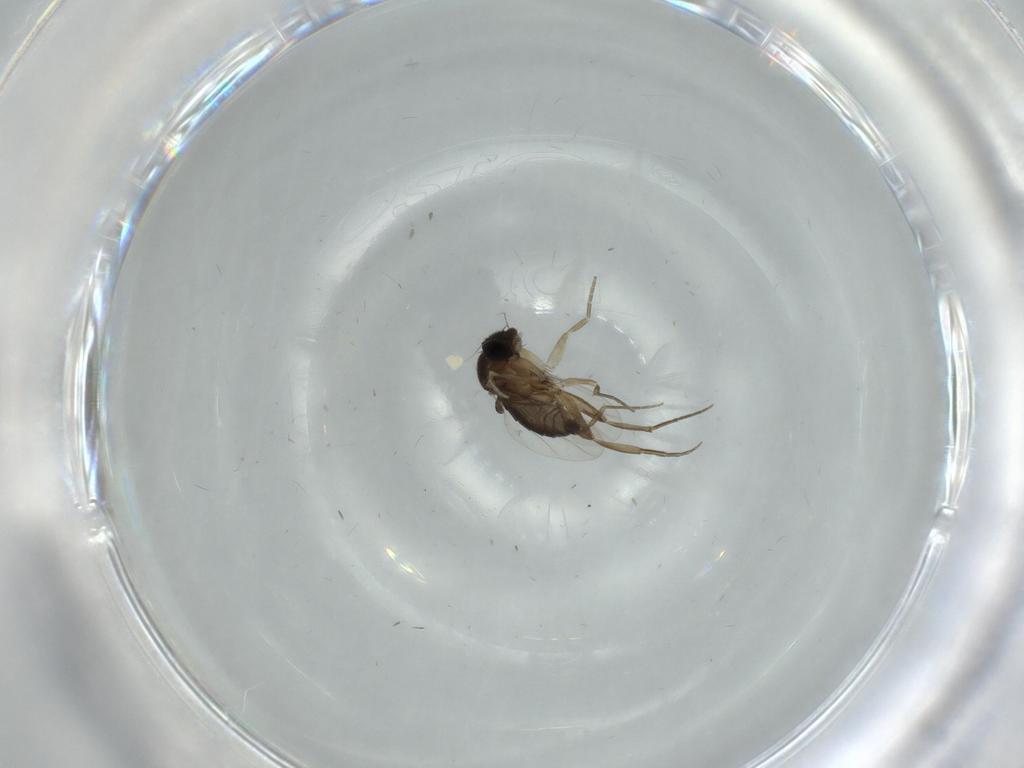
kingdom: Animalia
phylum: Arthropoda
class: Insecta
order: Diptera
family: Phoridae
